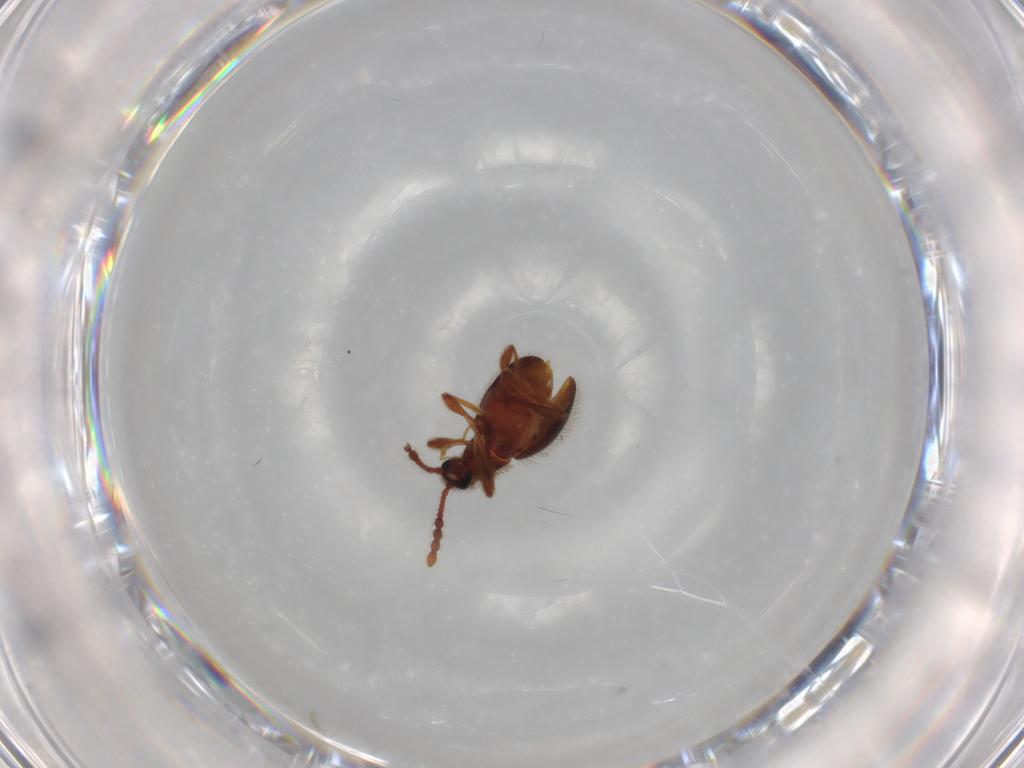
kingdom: Animalia
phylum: Arthropoda
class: Insecta
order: Coleoptera
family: Staphylinidae
